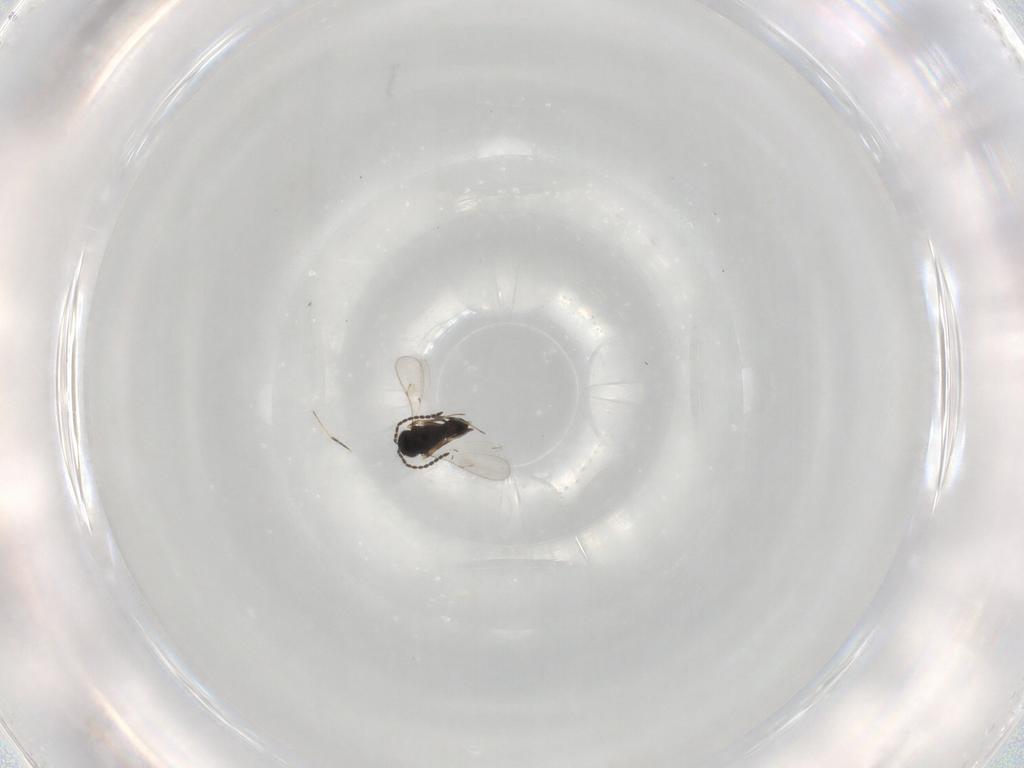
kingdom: Animalia
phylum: Arthropoda
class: Insecta
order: Hymenoptera
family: Scelionidae
